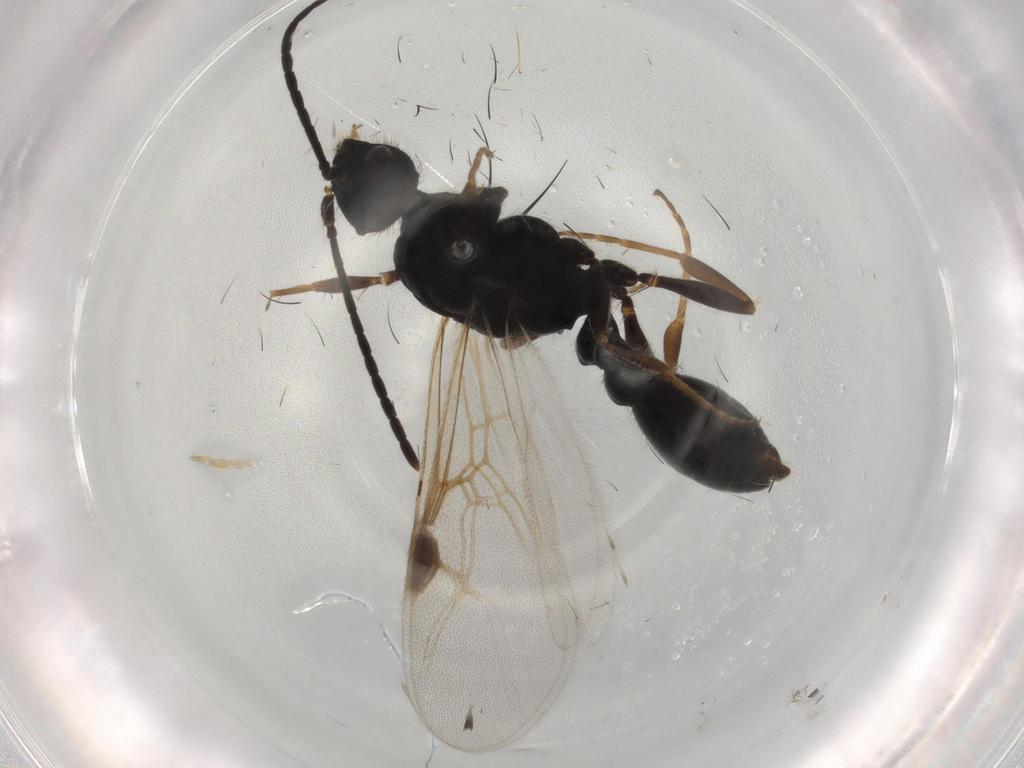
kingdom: Animalia
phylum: Arthropoda
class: Insecta
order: Hymenoptera
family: Formicidae
